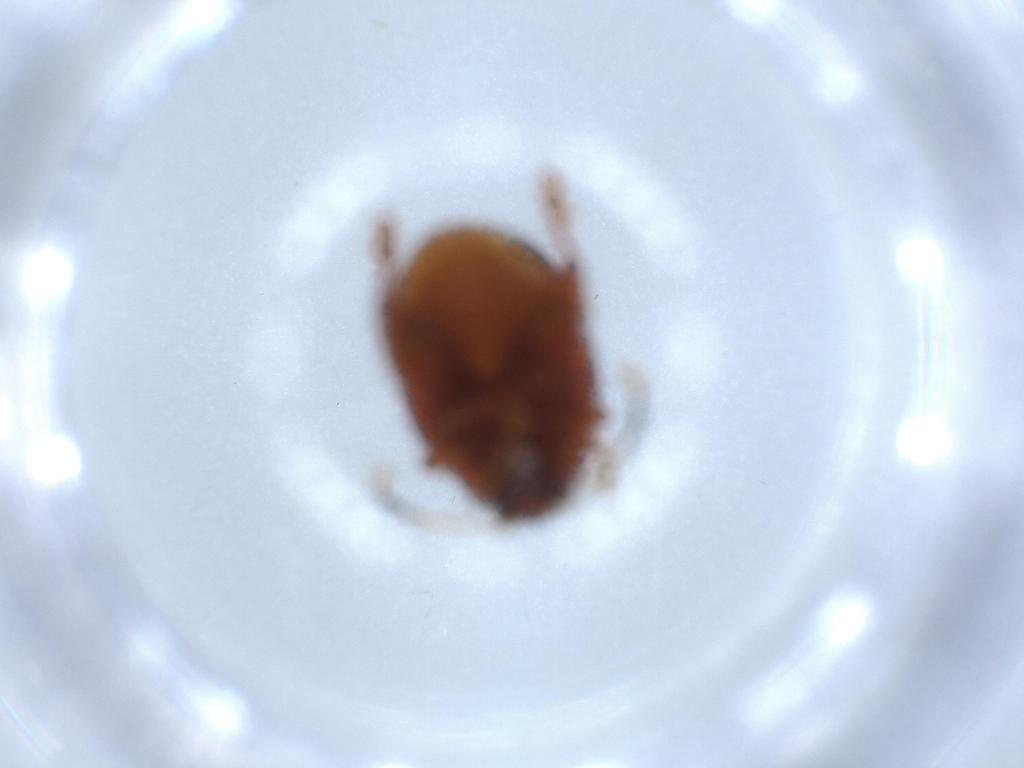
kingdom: Animalia
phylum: Arthropoda
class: Insecta
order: Coleoptera
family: Chrysomelidae
